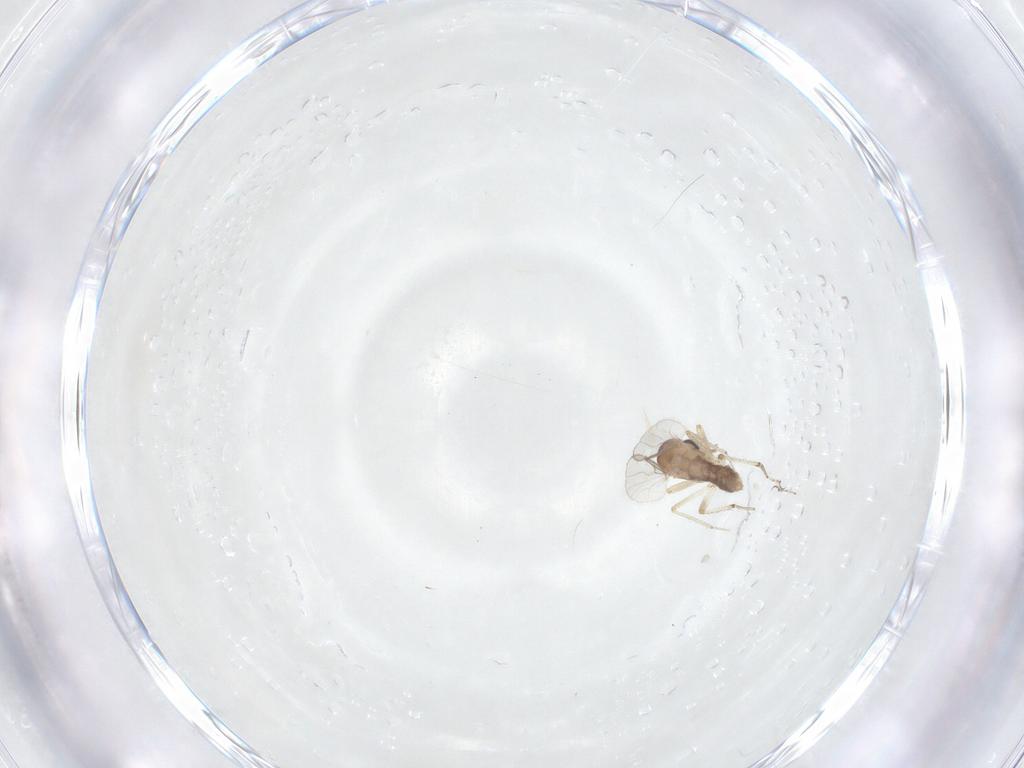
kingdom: Animalia
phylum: Arthropoda
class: Insecta
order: Diptera
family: Ceratopogonidae
